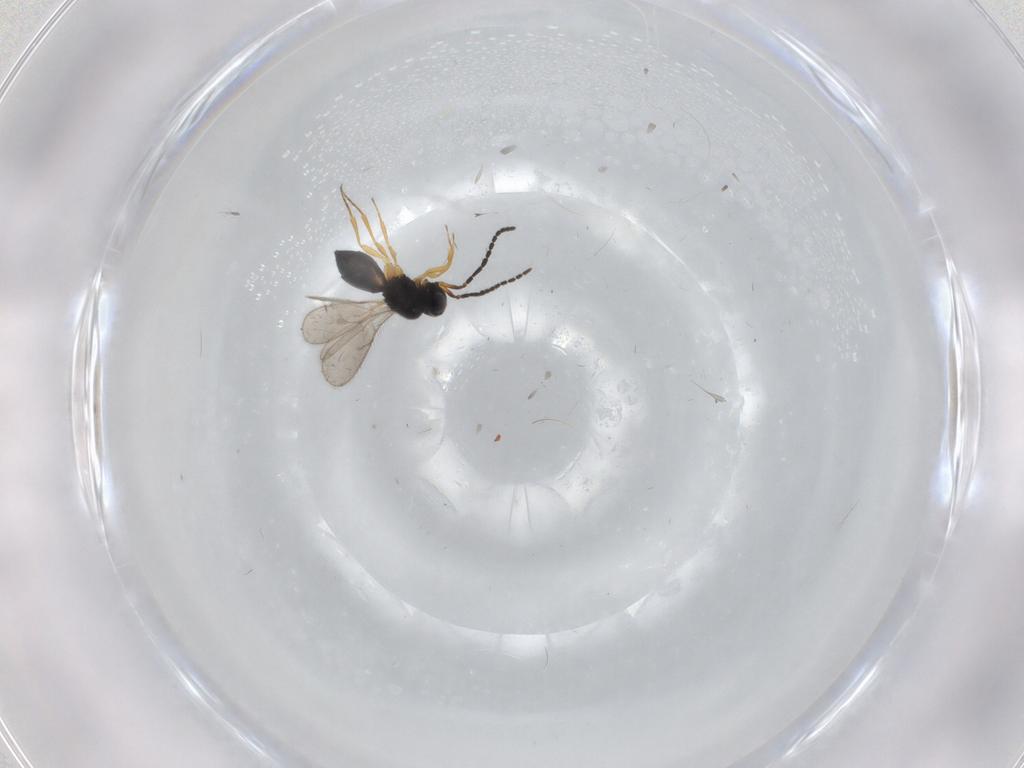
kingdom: Animalia
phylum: Arthropoda
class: Insecta
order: Hymenoptera
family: Scelionidae
